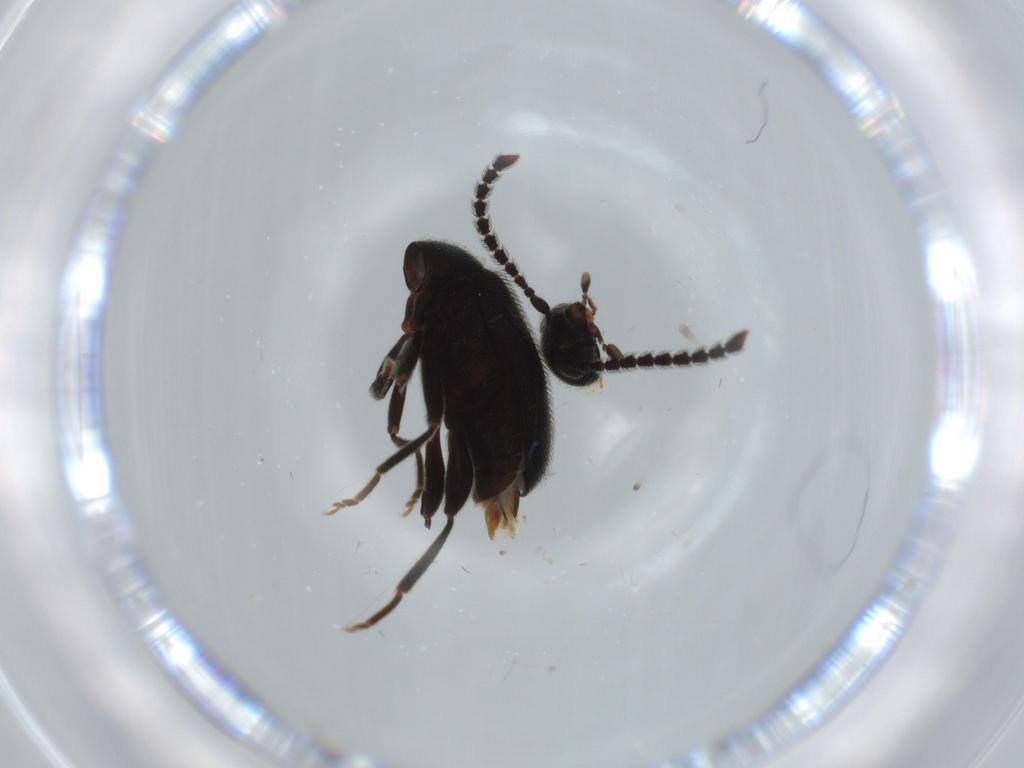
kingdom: Animalia
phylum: Arthropoda
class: Insecta
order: Coleoptera
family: Aderidae
